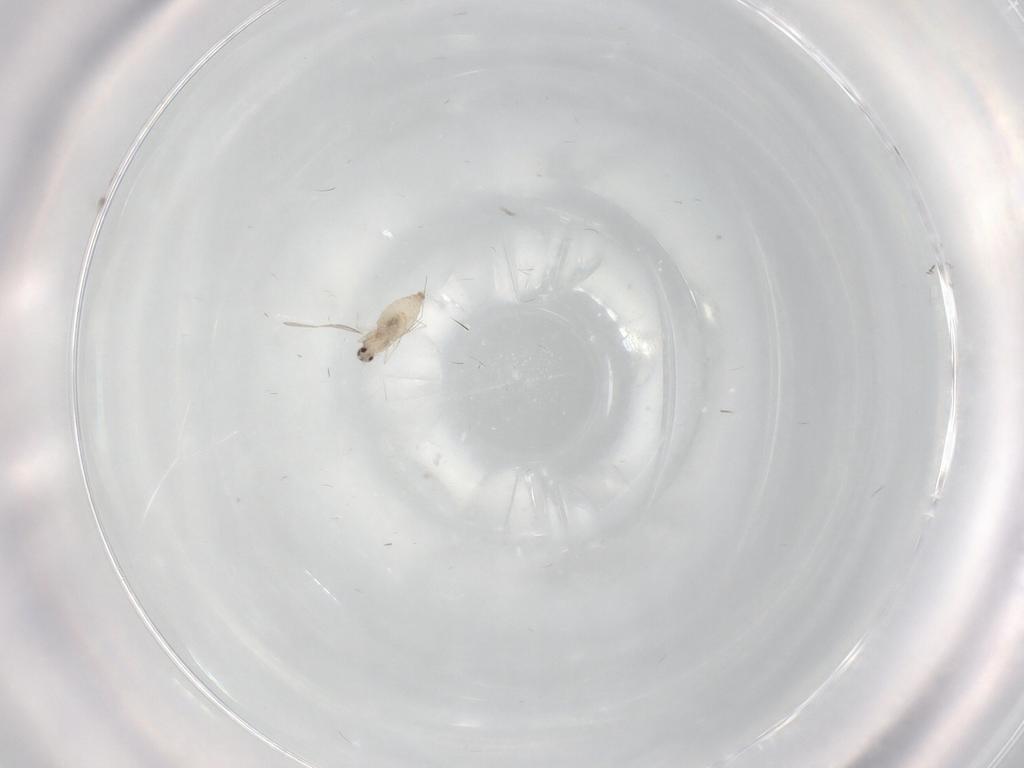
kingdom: Animalia
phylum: Arthropoda
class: Insecta
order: Diptera
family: Cecidomyiidae
